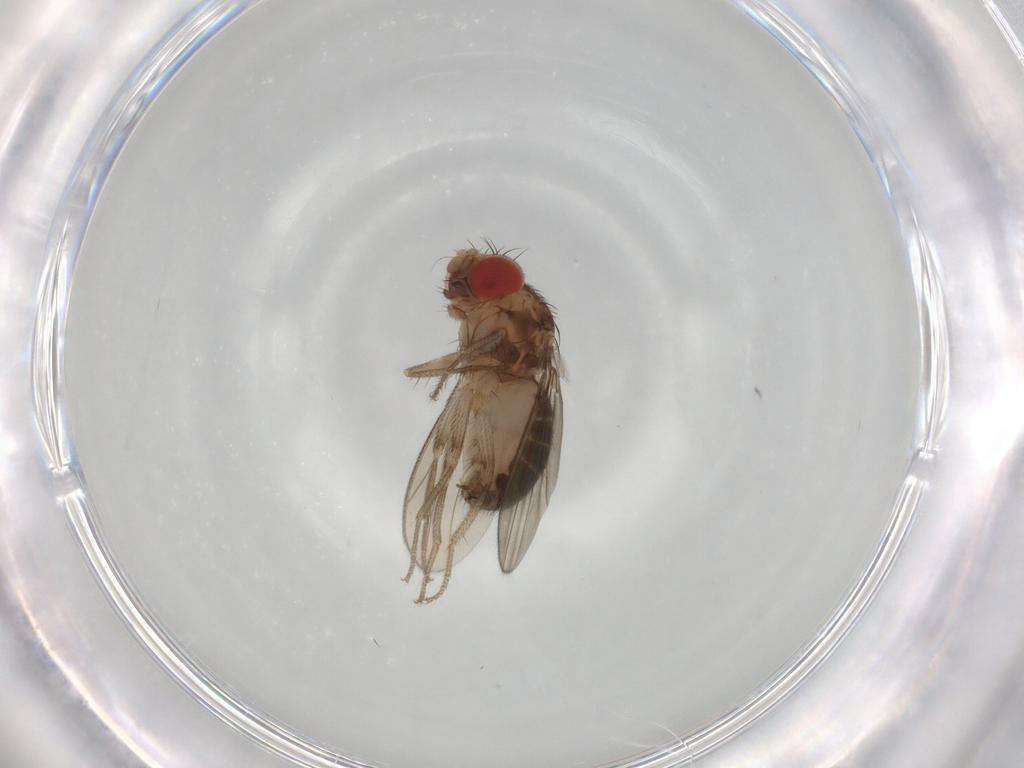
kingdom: Animalia
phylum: Arthropoda
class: Insecta
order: Diptera
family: Drosophilidae
